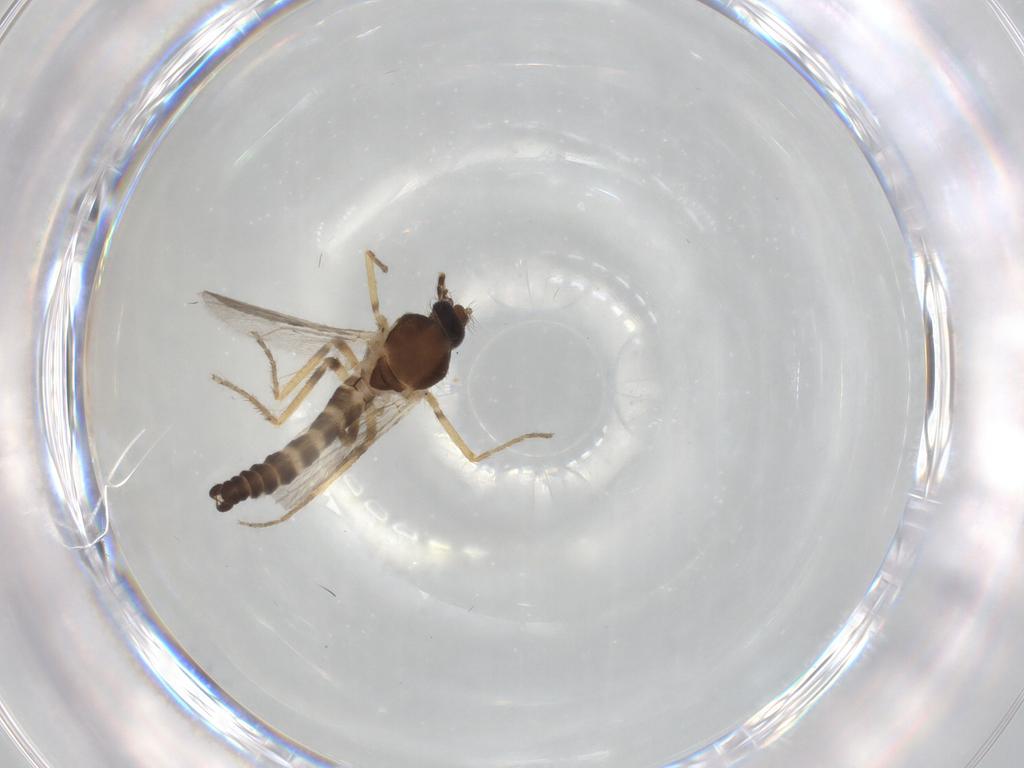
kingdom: Animalia
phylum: Arthropoda
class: Insecta
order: Diptera
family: Ceratopogonidae
